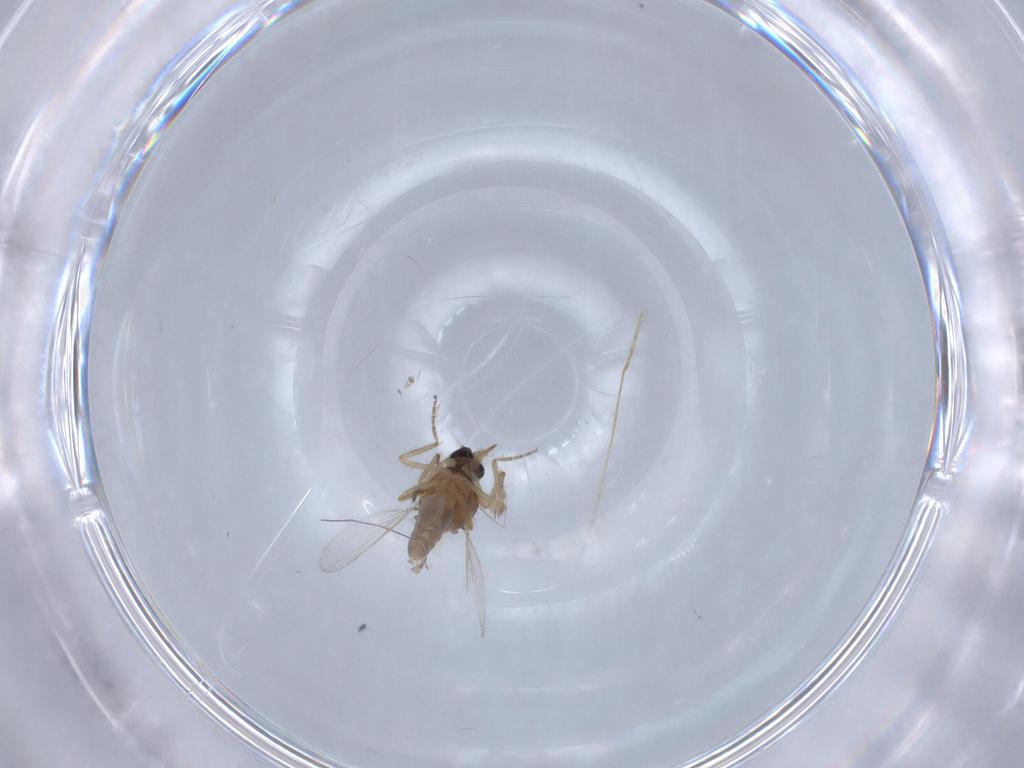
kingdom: Animalia
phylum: Arthropoda
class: Insecta
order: Diptera
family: Ceratopogonidae
